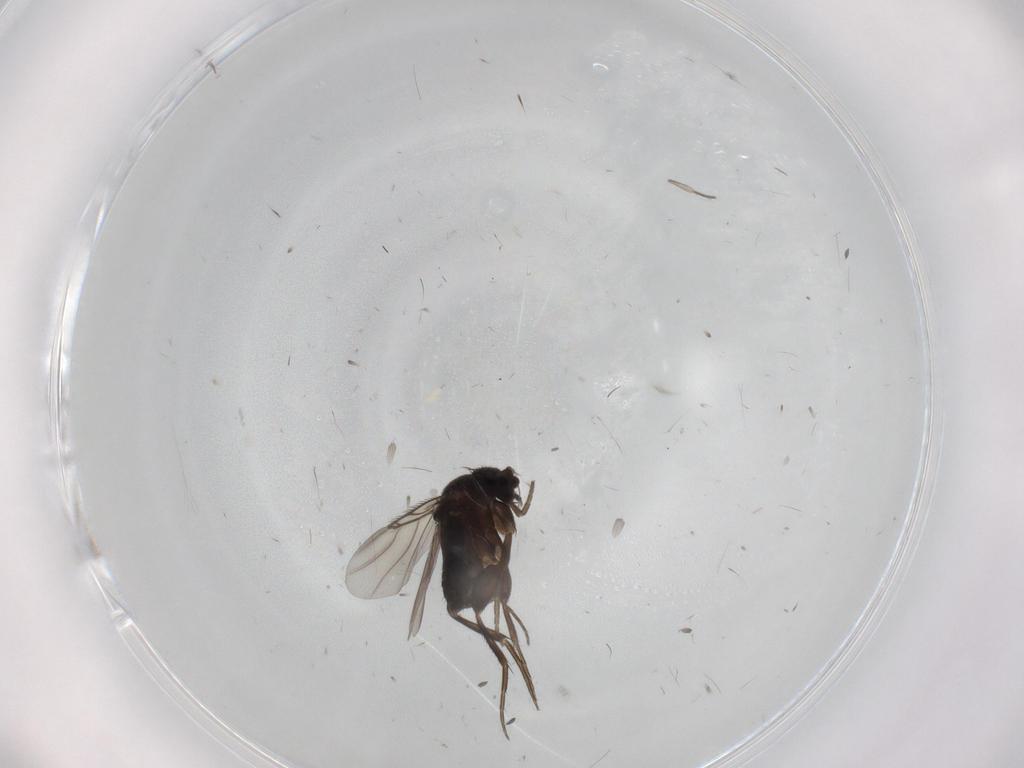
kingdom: Animalia
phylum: Arthropoda
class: Insecta
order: Diptera
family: Phoridae
